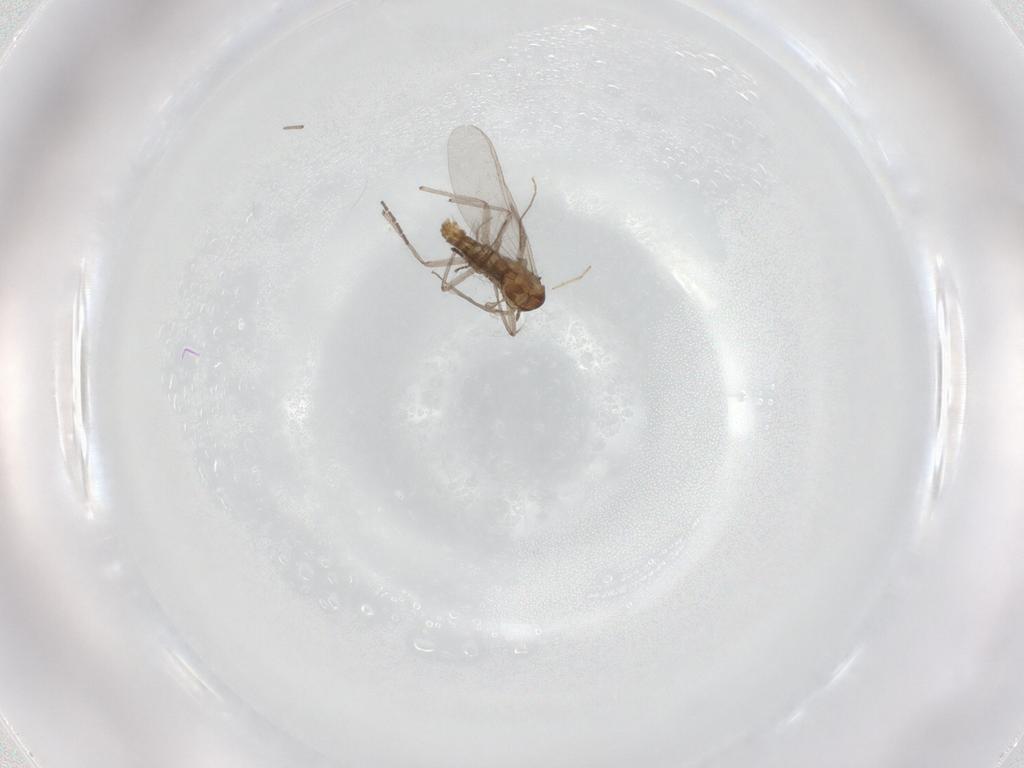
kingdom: Animalia
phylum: Arthropoda
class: Insecta
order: Diptera
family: Chironomidae
